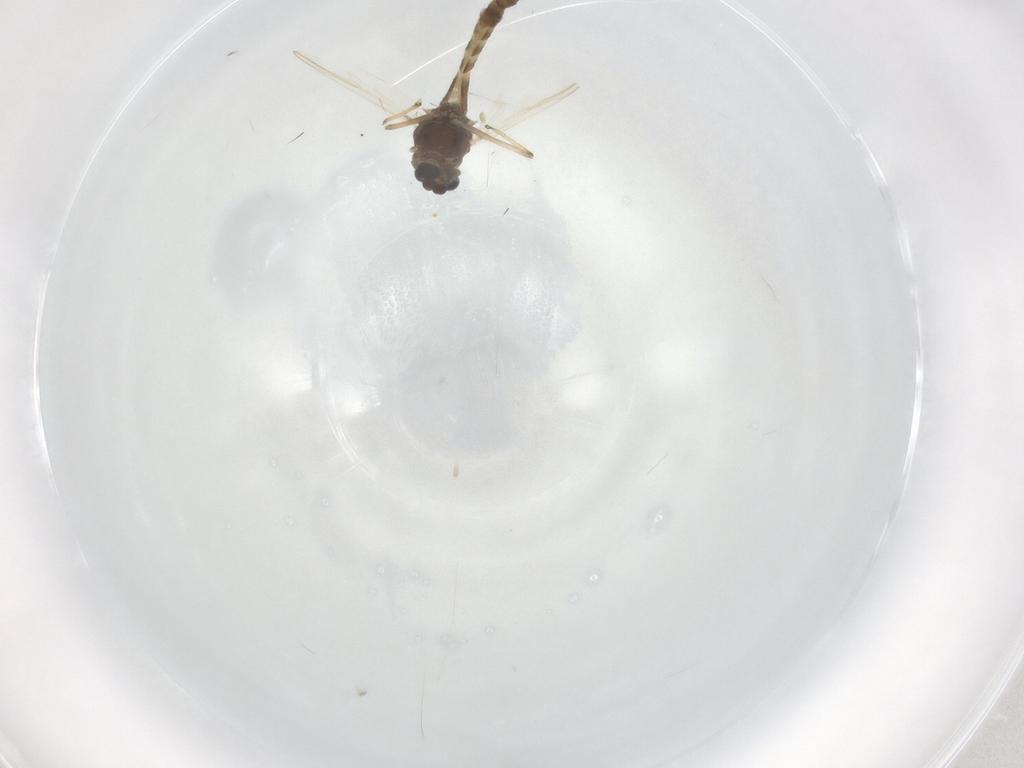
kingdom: Animalia
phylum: Arthropoda
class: Insecta
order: Diptera
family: Chironomidae
